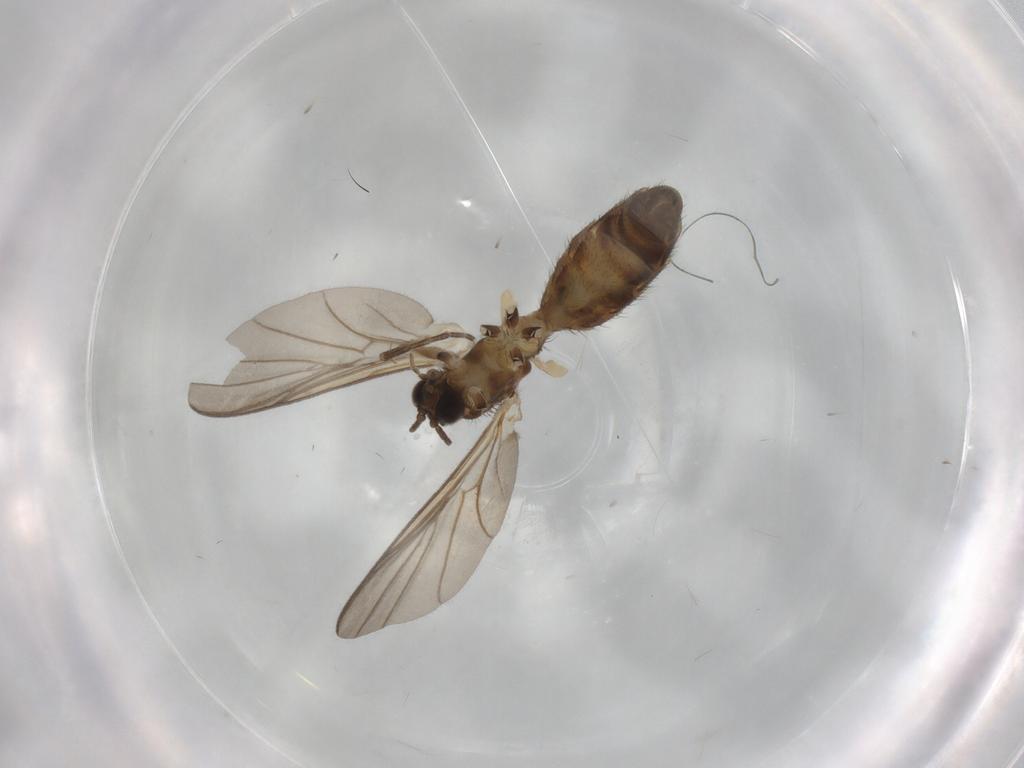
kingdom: Animalia
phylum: Arthropoda
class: Insecta
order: Diptera
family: Keroplatidae
